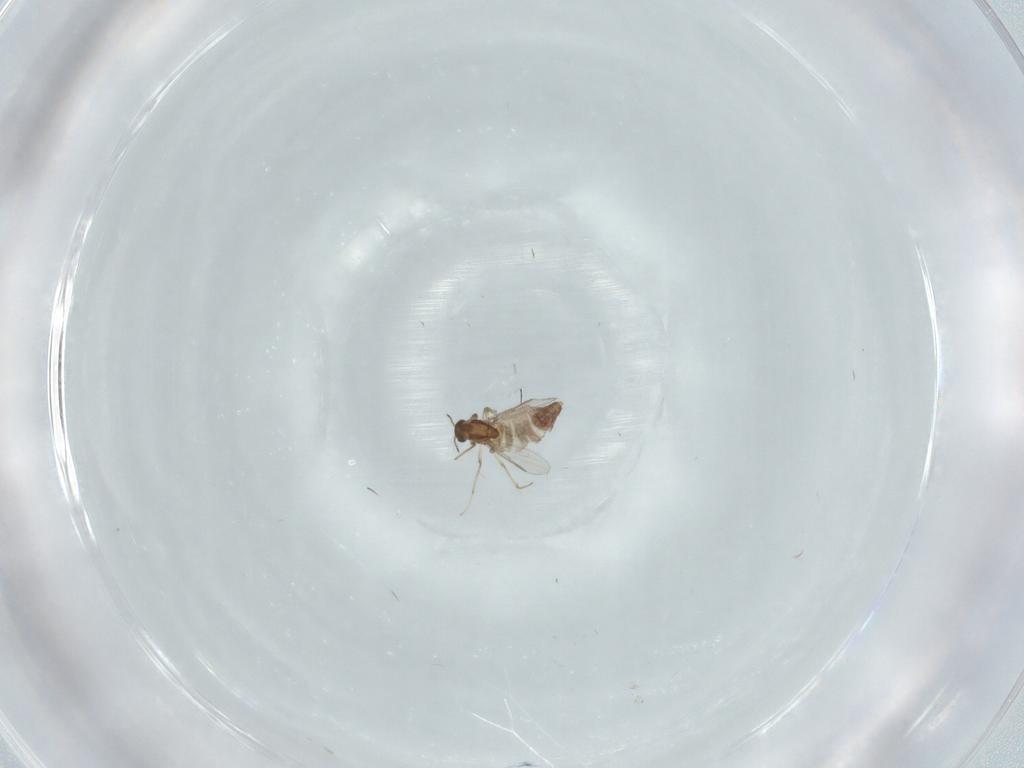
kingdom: Animalia
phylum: Arthropoda
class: Insecta
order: Diptera
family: Chironomidae
